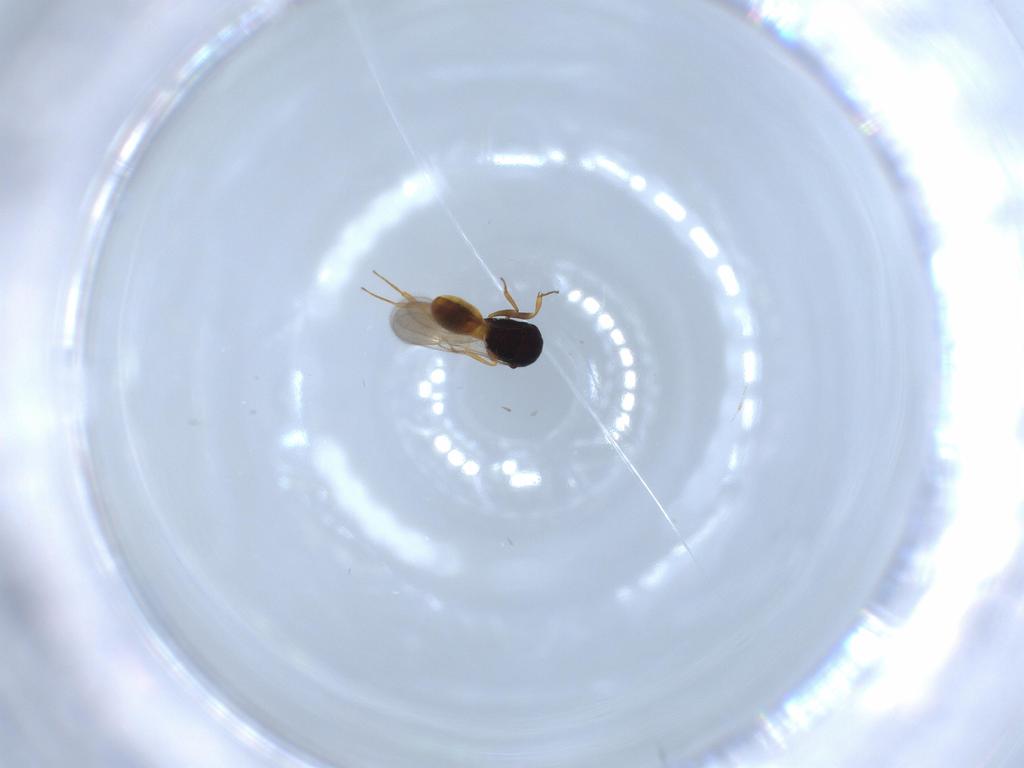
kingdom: Animalia
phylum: Arthropoda
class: Insecta
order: Hymenoptera
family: Scelionidae
